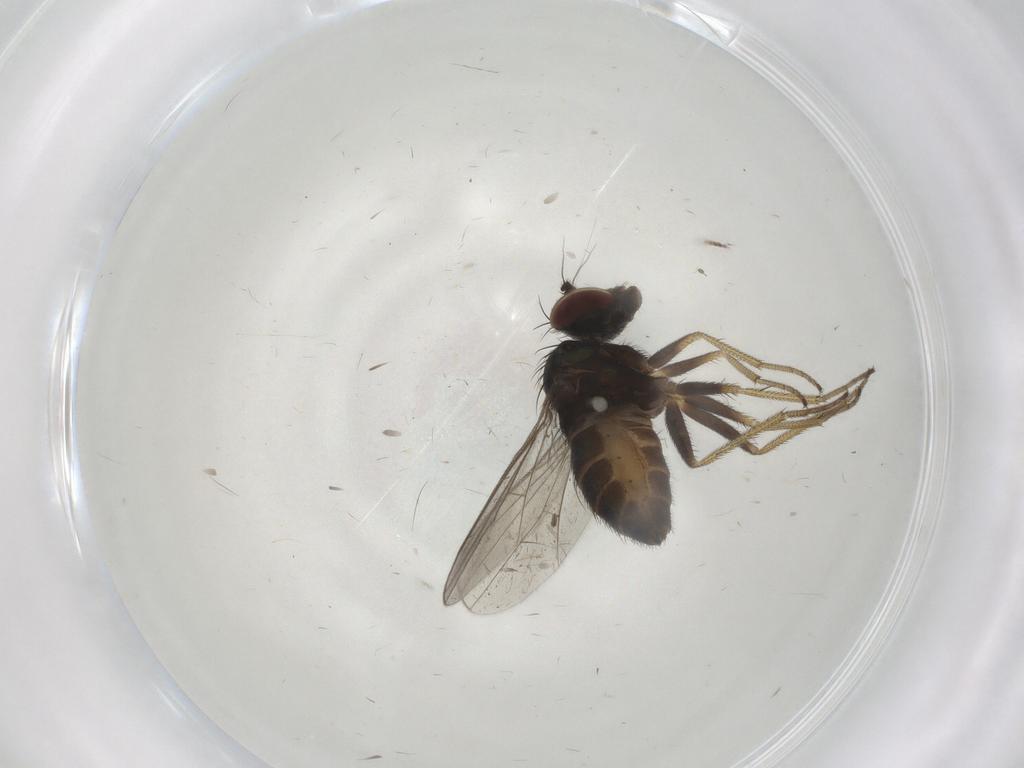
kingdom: Animalia
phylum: Arthropoda
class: Insecta
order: Diptera
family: Dolichopodidae
